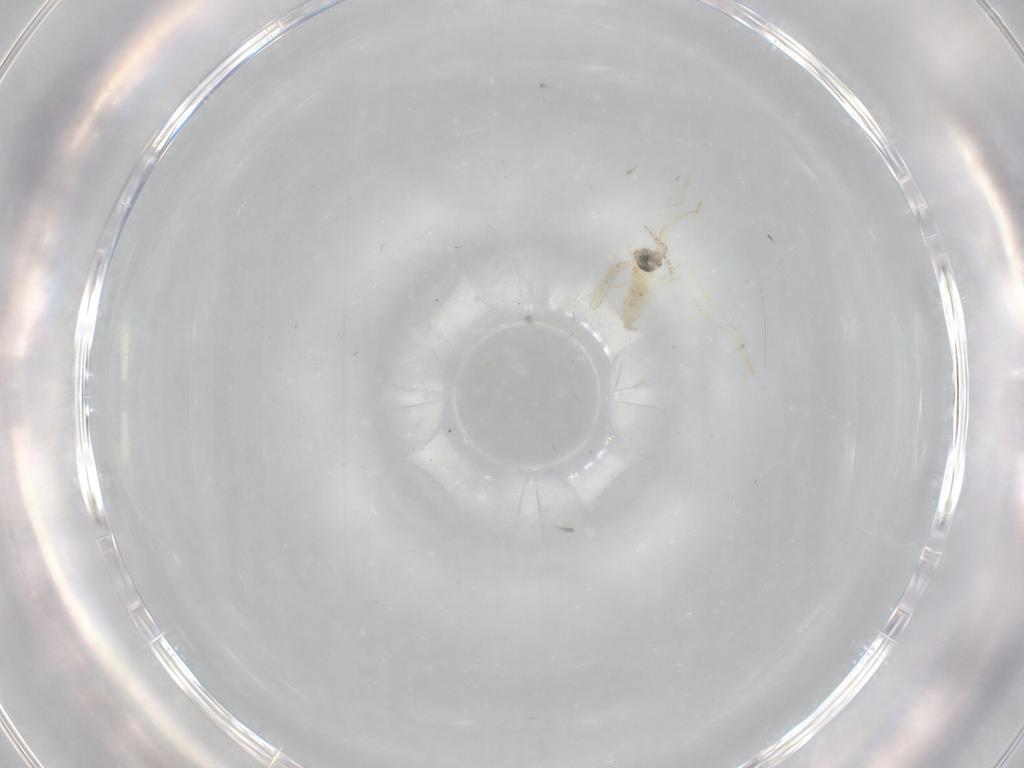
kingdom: Animalia
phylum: Arthropoda
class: Insecta
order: Diptera
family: Cecidomyiidae
